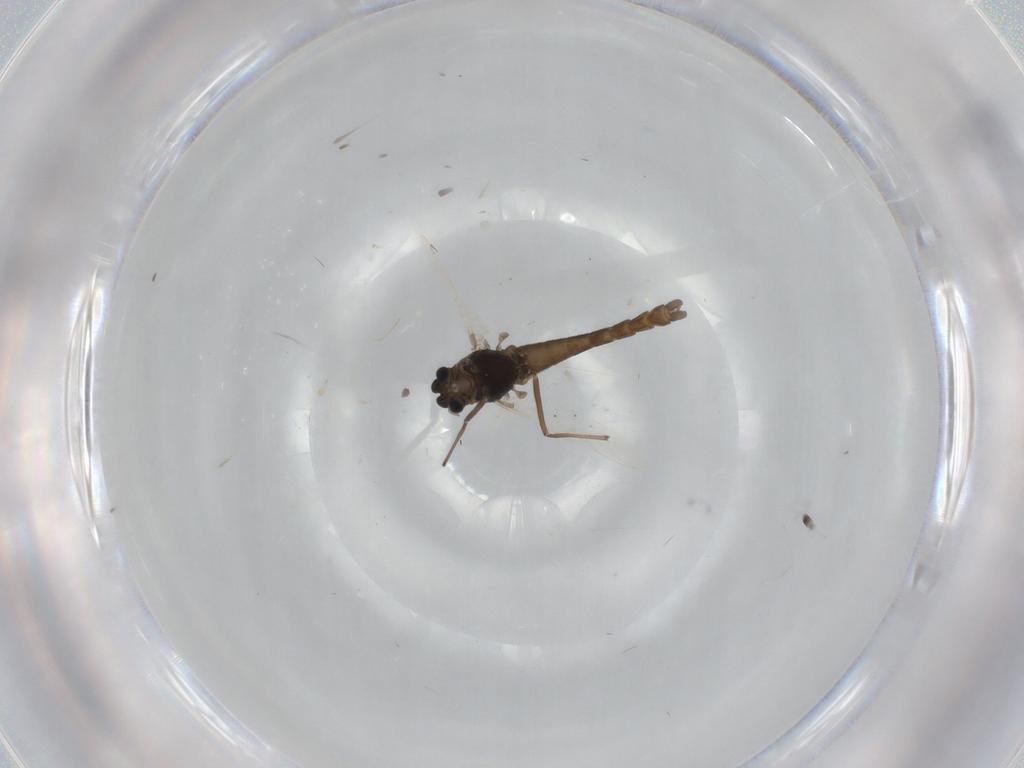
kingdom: Animalia
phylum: Arthropoda
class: Insecta
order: Diptera
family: Chironomidae
